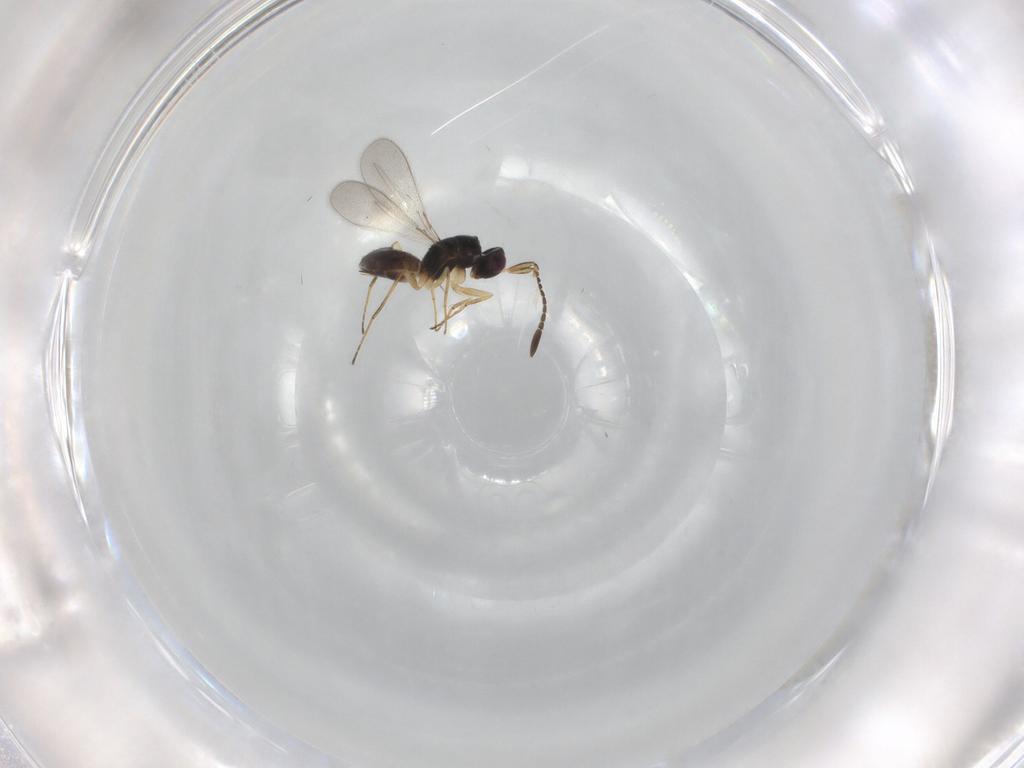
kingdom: Animalia
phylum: Arthropoda
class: Insecta
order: Hymenoptera
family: Mymaridae
